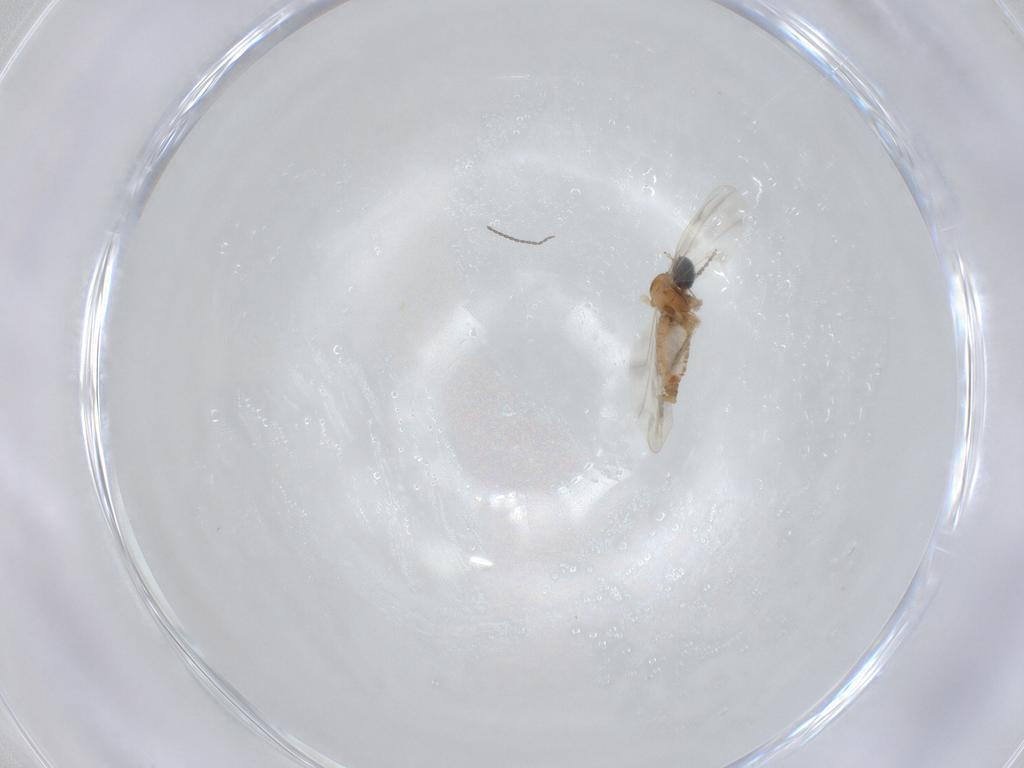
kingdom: Animalia
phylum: Arthropoda
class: Insecta
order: Diptera
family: Cecidomyiidae
